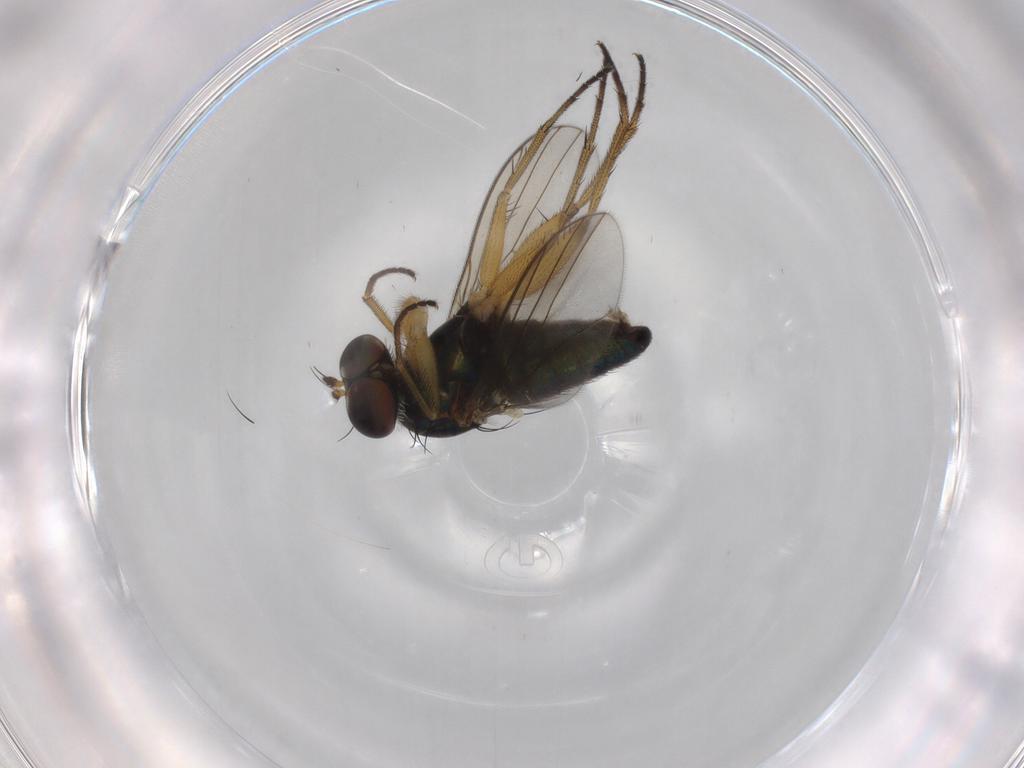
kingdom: Animalia
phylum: Arthropoda
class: Insecta
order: Diptera
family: Dolichopodidae
